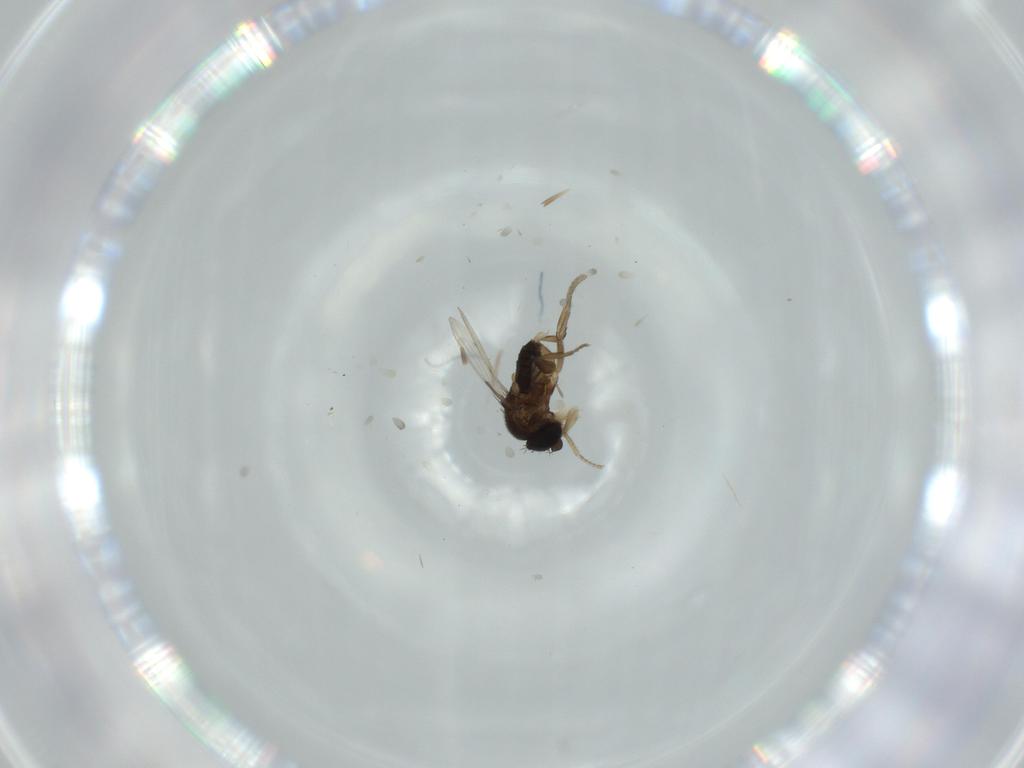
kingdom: Animalia
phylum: Arthropoda
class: Insecta
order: Diptera
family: Phoridae
